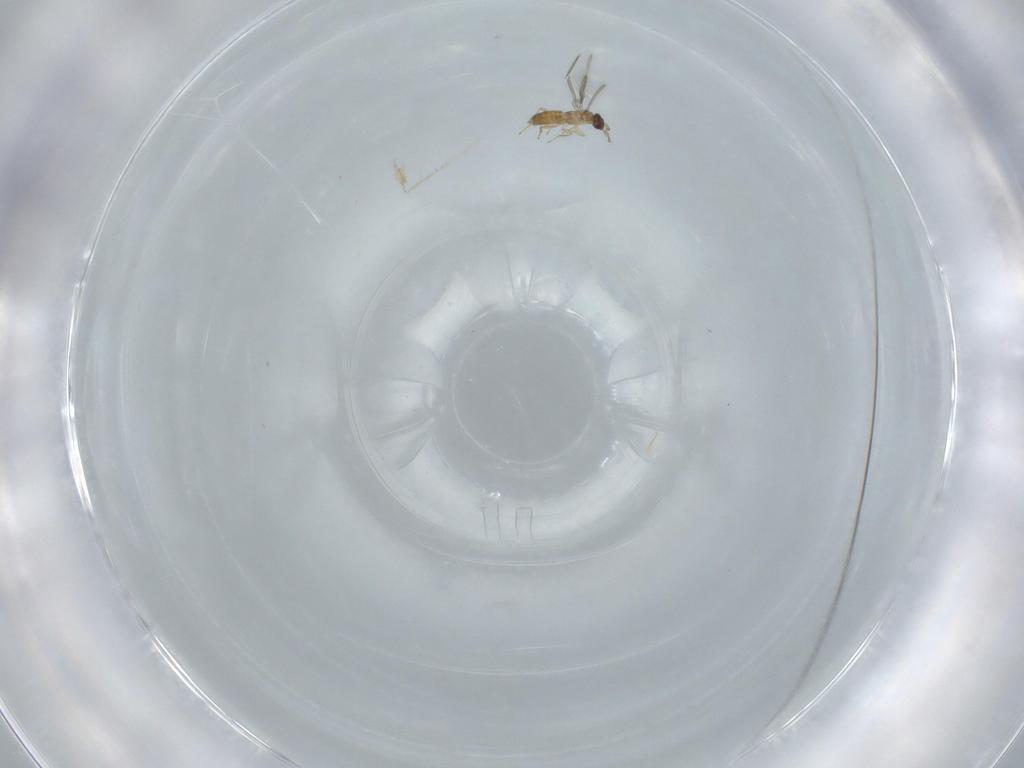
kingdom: Animalia
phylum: Arthropoda
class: Insecta
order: Hymenoptera
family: Mymaridae
